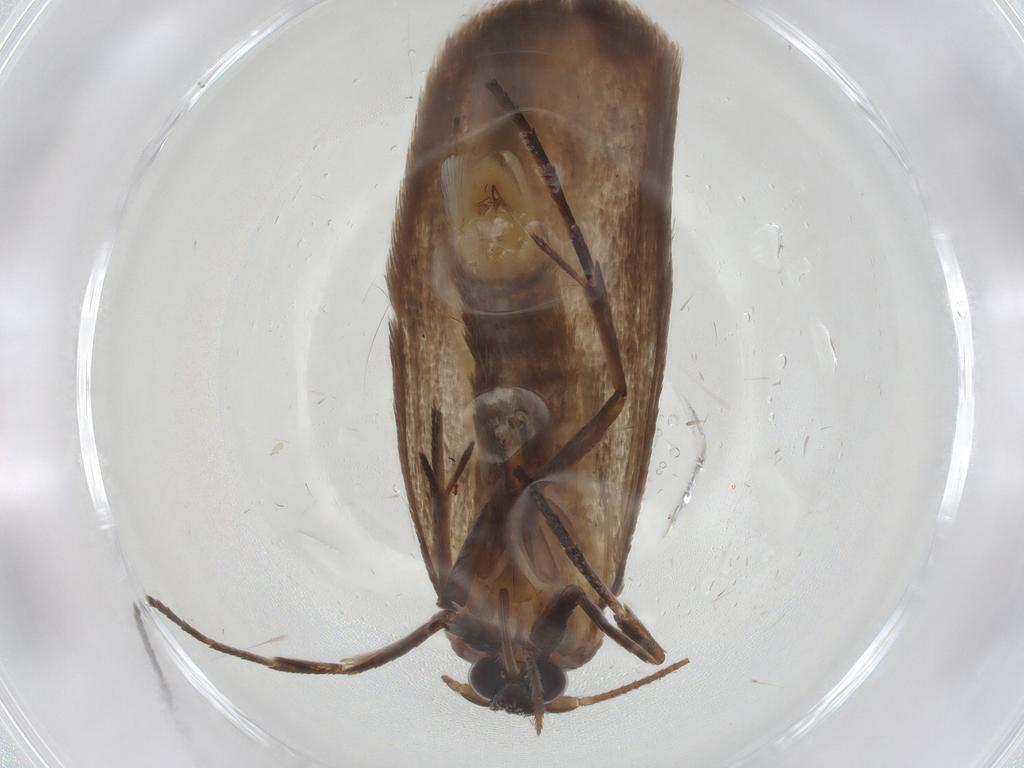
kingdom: Animalia
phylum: Arthropoda
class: Insecta
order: Lepidoptera
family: Roeslerstammiidae
